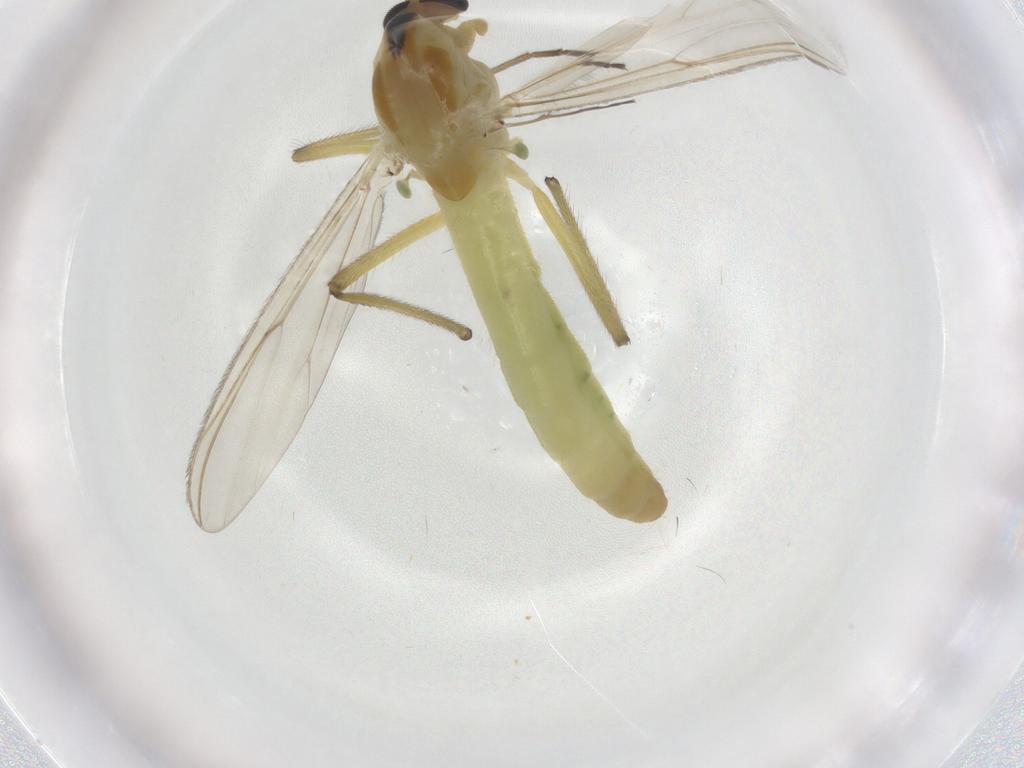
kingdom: Animalia
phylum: Arthropoda
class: Insecta
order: Diptera
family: Chironomidae
